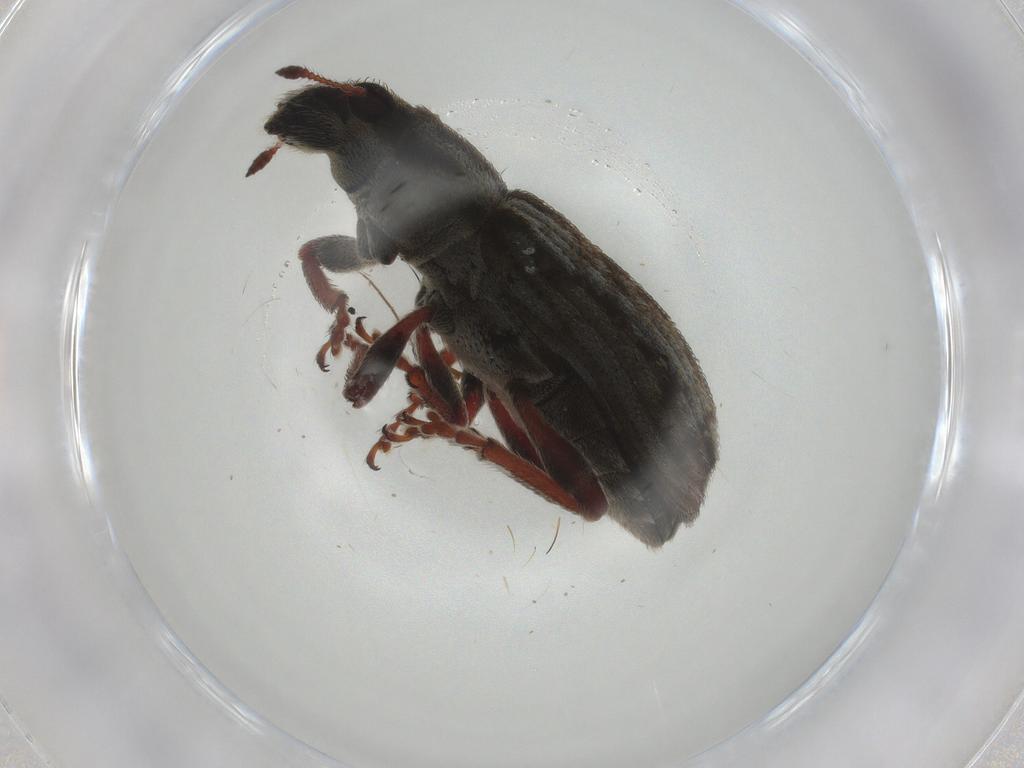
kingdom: Animalia
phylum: Arthropoda
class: Insecta
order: Coleoptera
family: Curculionidae
